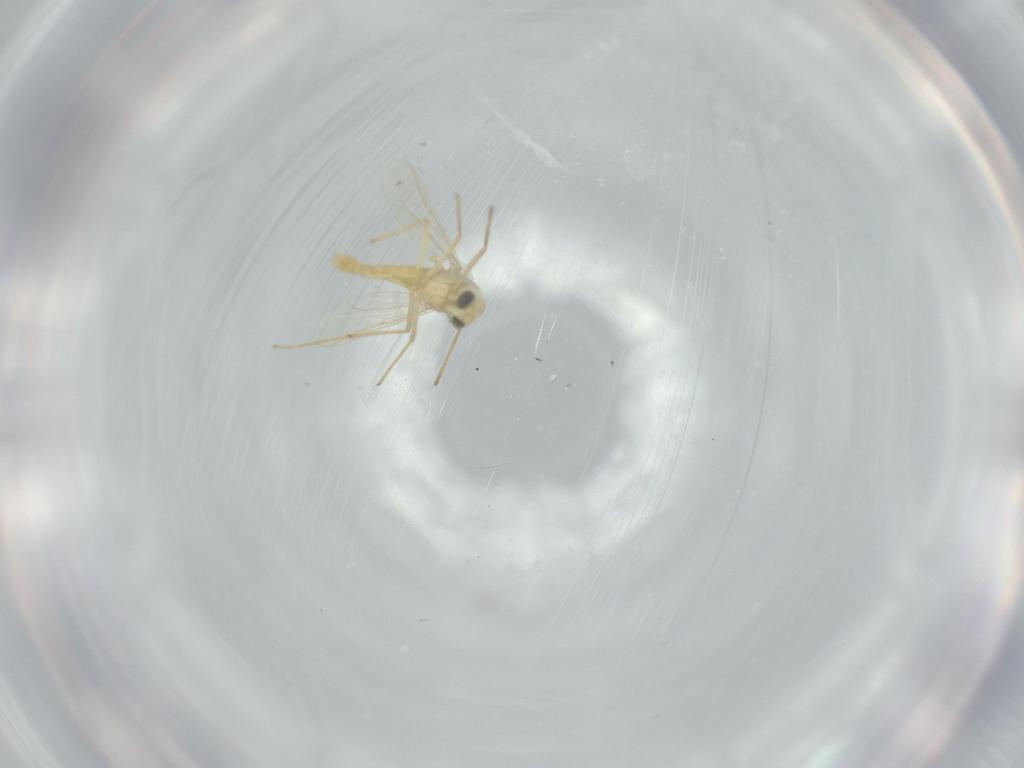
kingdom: Animalia
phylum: Arthropoda
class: Insecta
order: Diptera
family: Chironomidae
